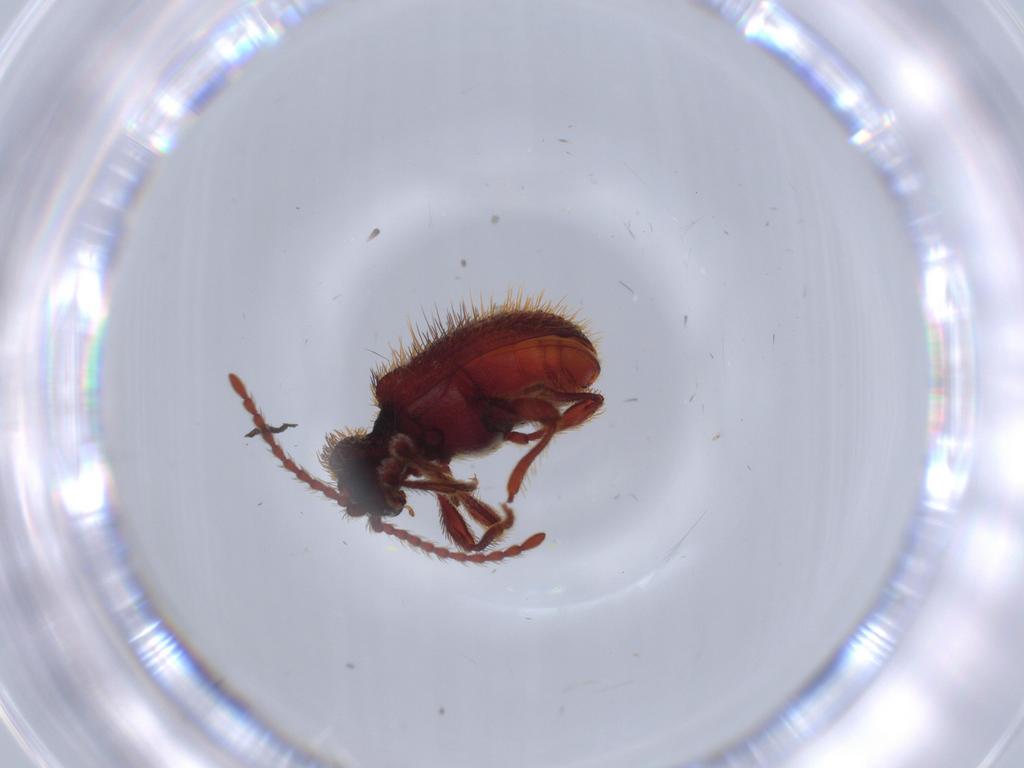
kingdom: Animalia
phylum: Arthropoda
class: Insecta
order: Coleoptera
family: Ptinidae
